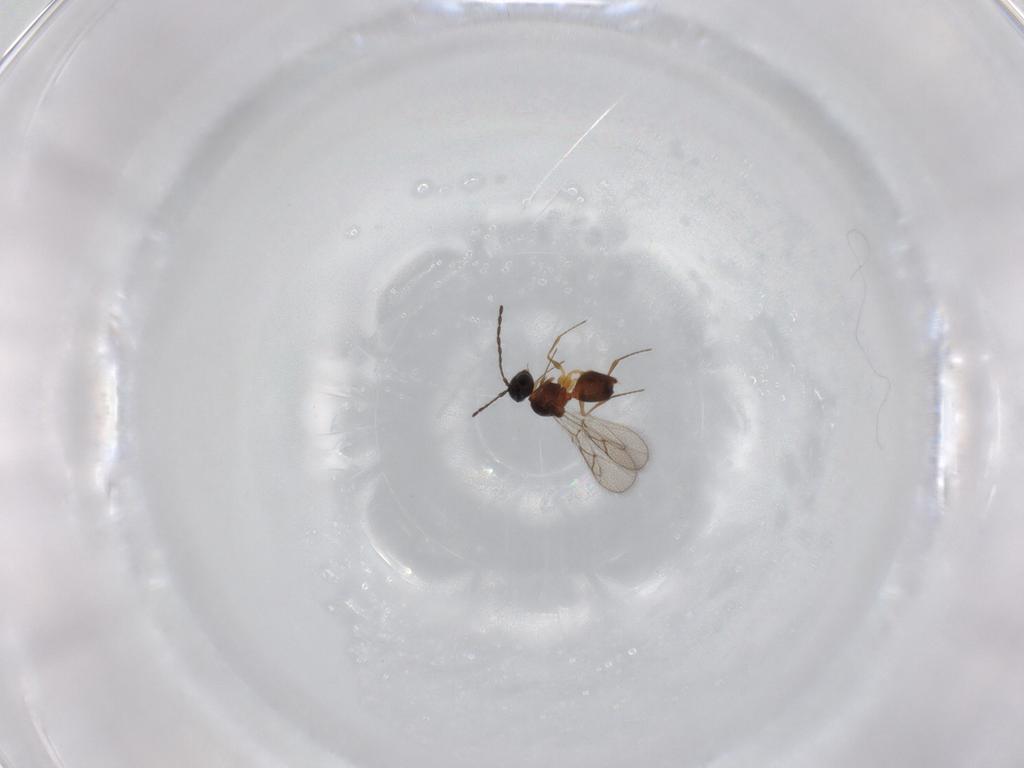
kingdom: Animalia
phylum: Arthropoda
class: Insecta
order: Hymenoptera
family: Figitidae
